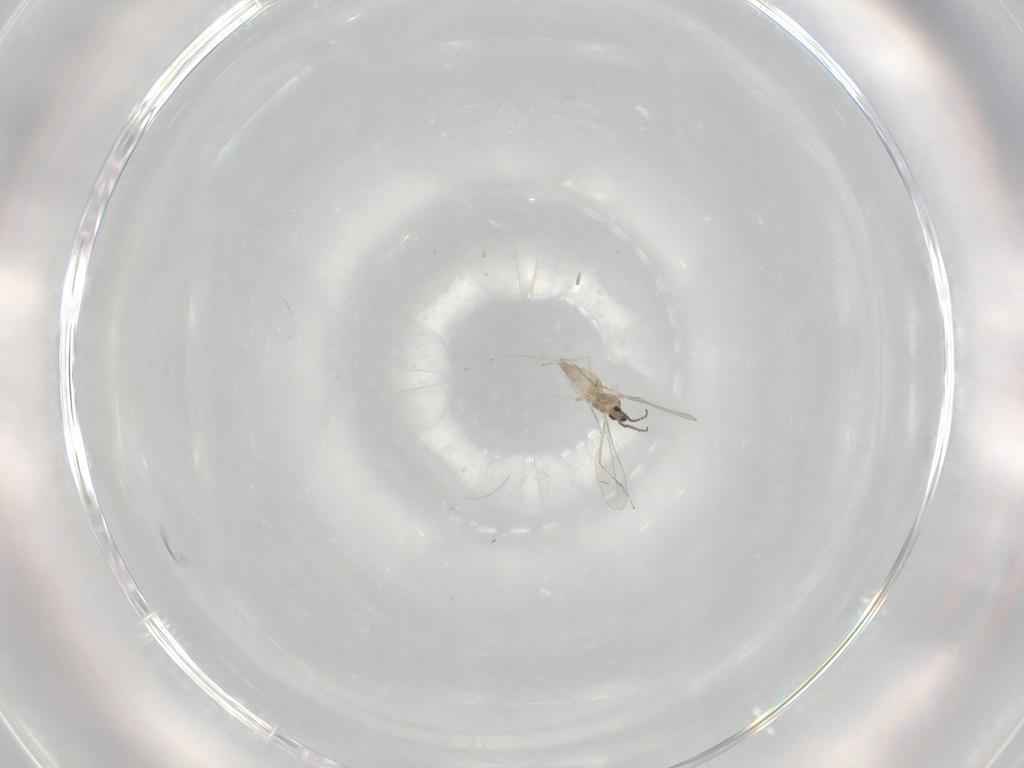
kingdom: Animalia
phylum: Arthropoda
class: Insecta
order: Diptera
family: Cecidomyiidae
